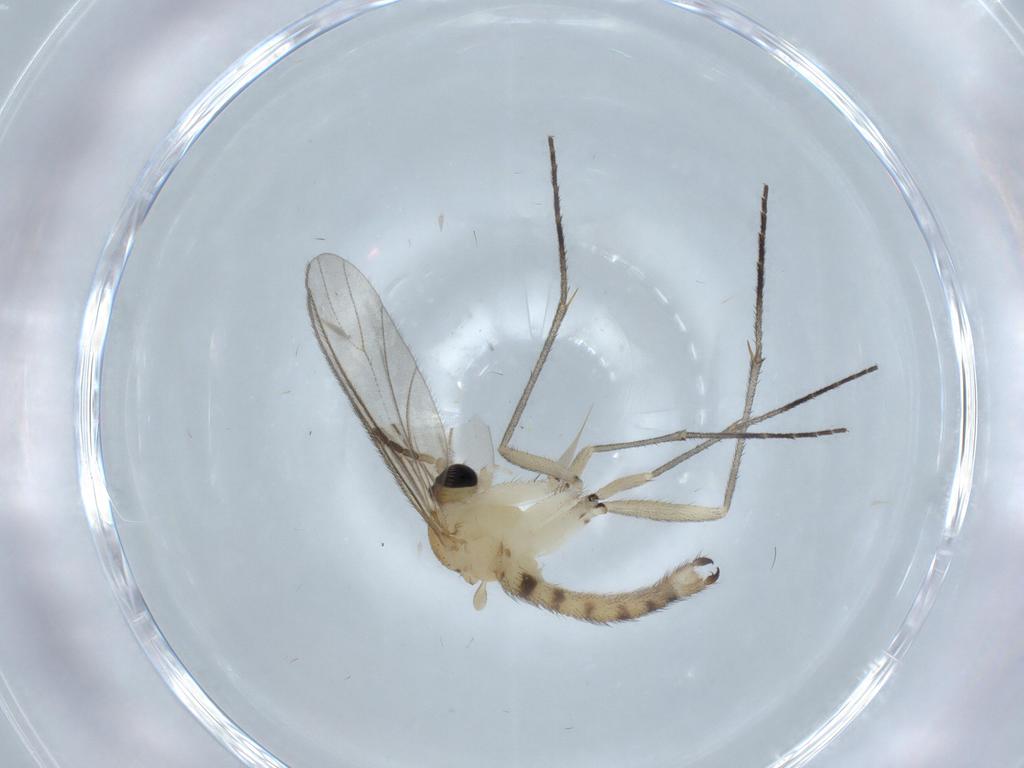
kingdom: Animalia
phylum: Arthropoda
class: Insecta
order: Diptera
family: Sciaridae
